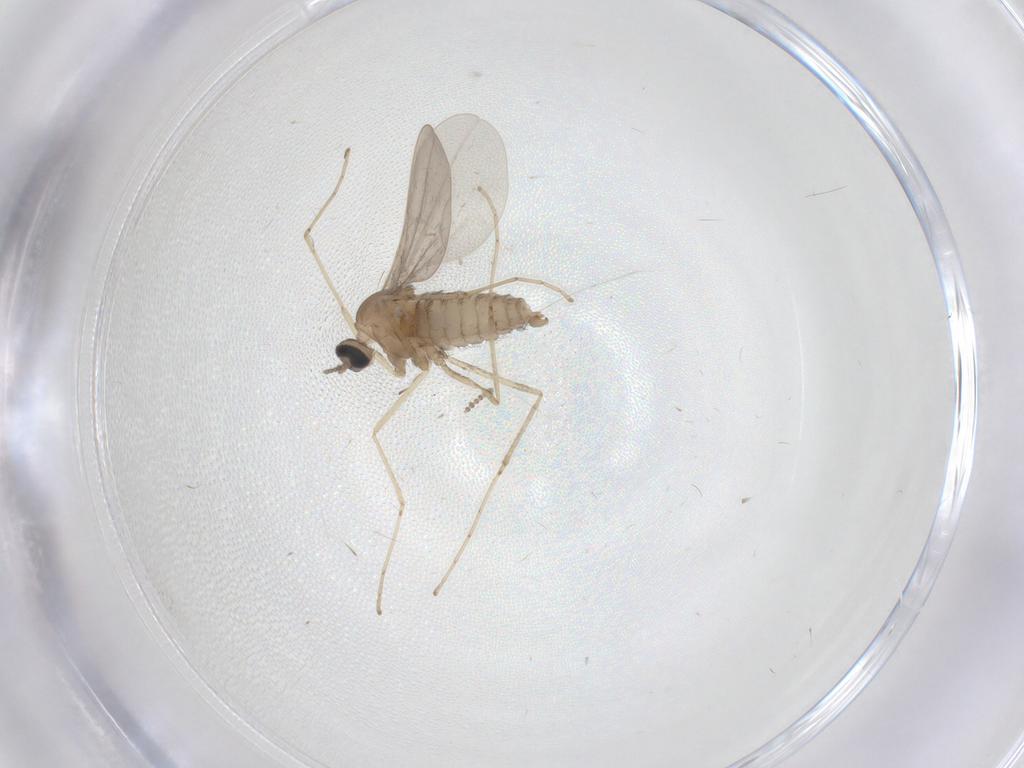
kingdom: Animalia
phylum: Arthropoda
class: Insecta
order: Diptera
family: Cecidomyiidae
